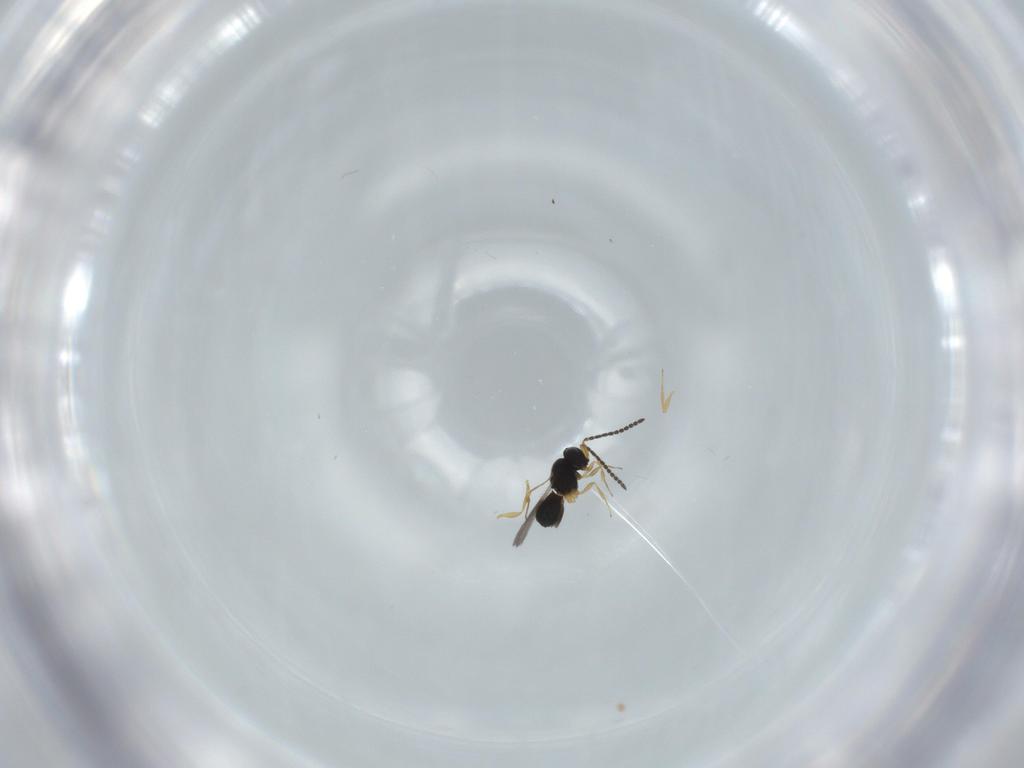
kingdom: Animalia
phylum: Arthropoda
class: Insecta
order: Hymenoptera
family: Scelionidae
